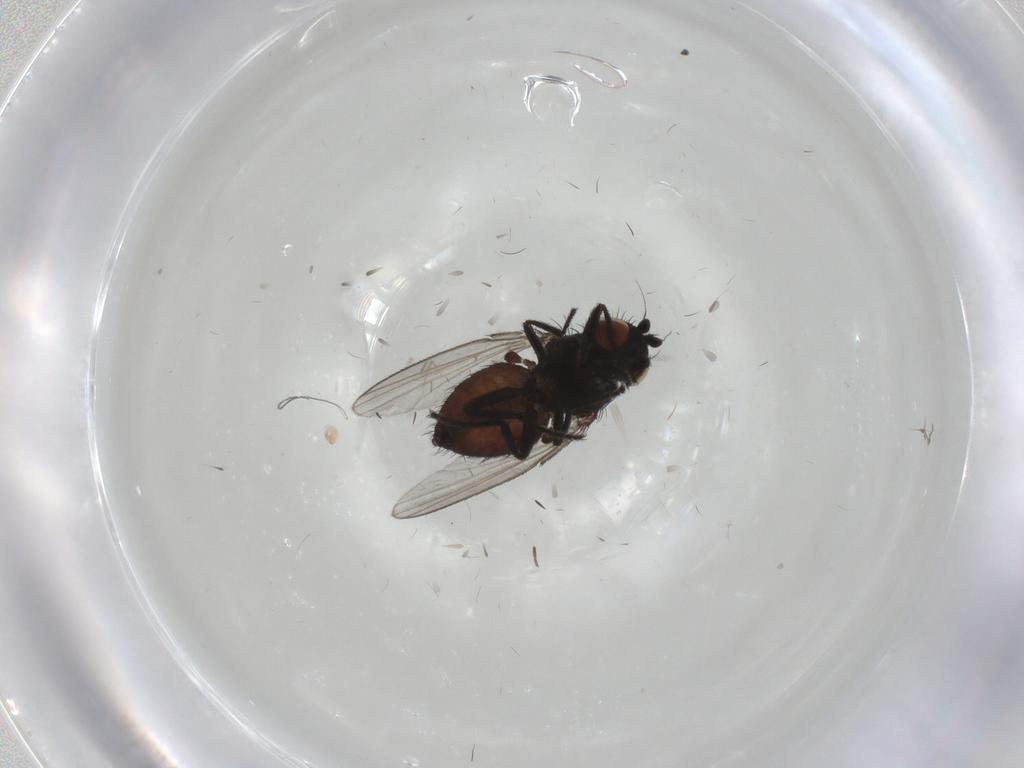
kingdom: Animalia
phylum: Arthropoda
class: Insecta
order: Diptera
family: Milichiidae
